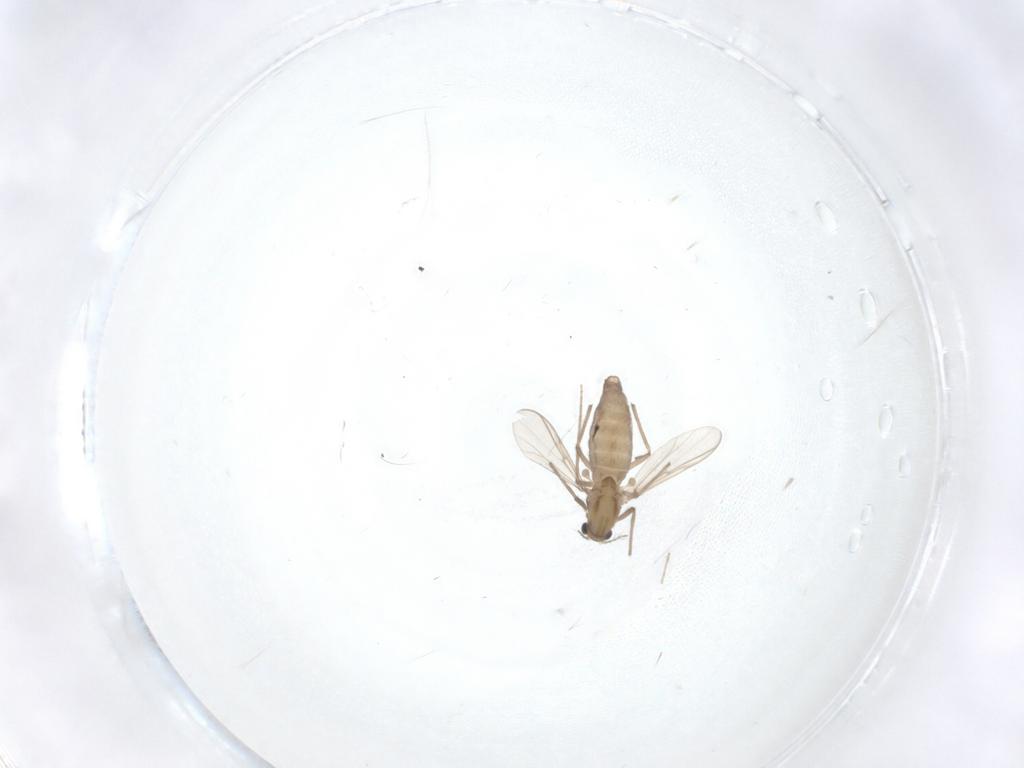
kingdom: Animalia
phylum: Arthropoda
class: Insecta
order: Diptera
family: Chironomidae
